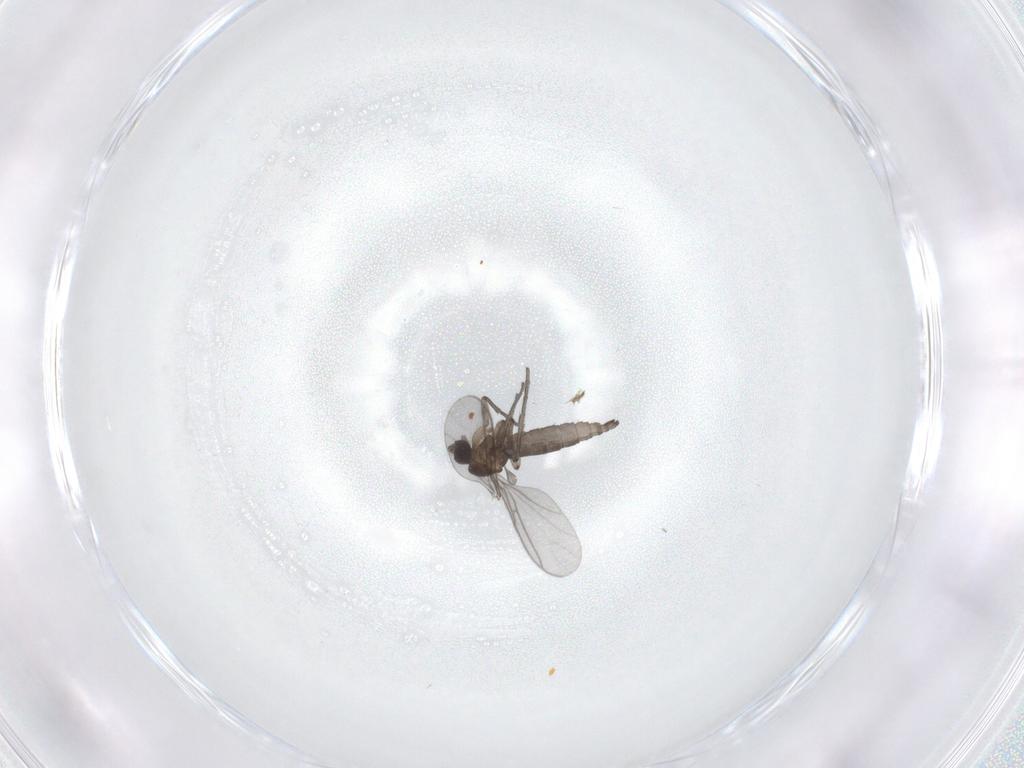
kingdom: Animalia
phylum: Arthropoda
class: Insecta
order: Diptera
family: Sciaridae
